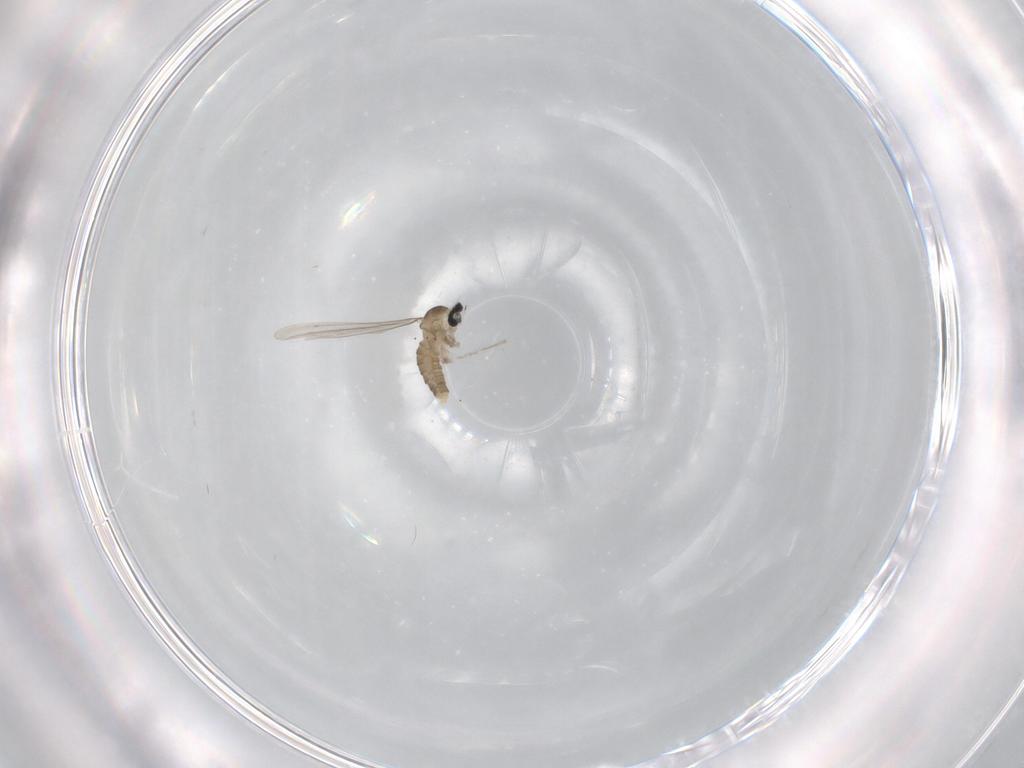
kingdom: Animalia
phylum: Arthropoda
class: Insecta
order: Diptera
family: Cecidomyiidae
